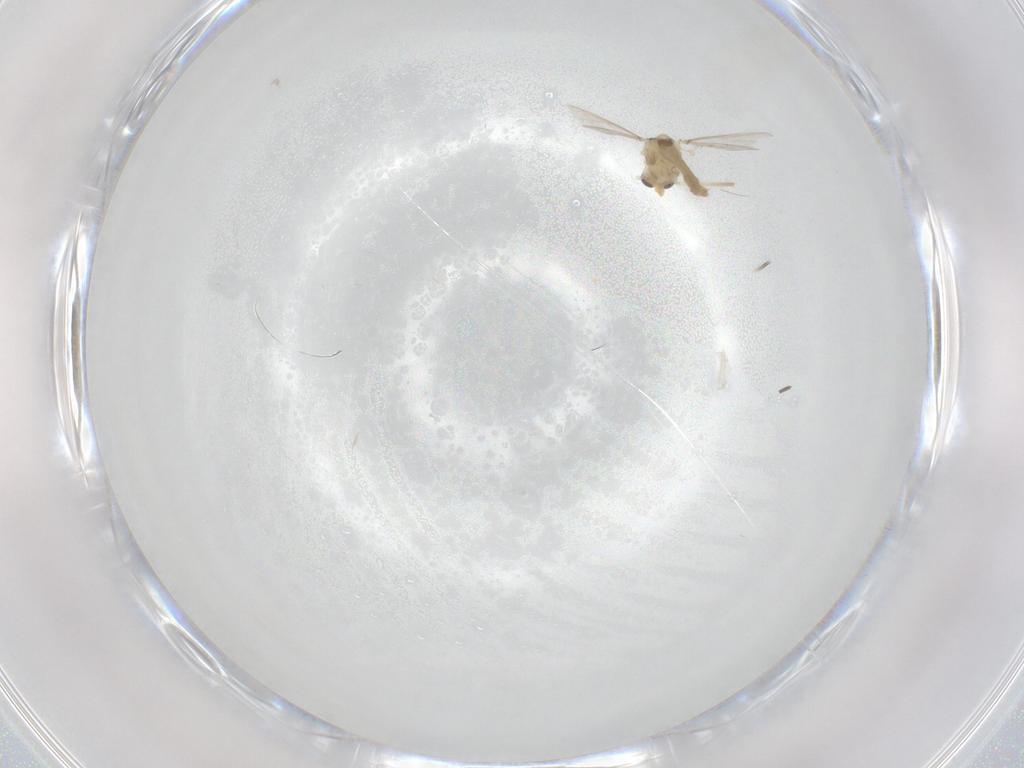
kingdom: Animalia
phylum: Arthropoda
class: Insecta
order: Diptera
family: Chironomidae
